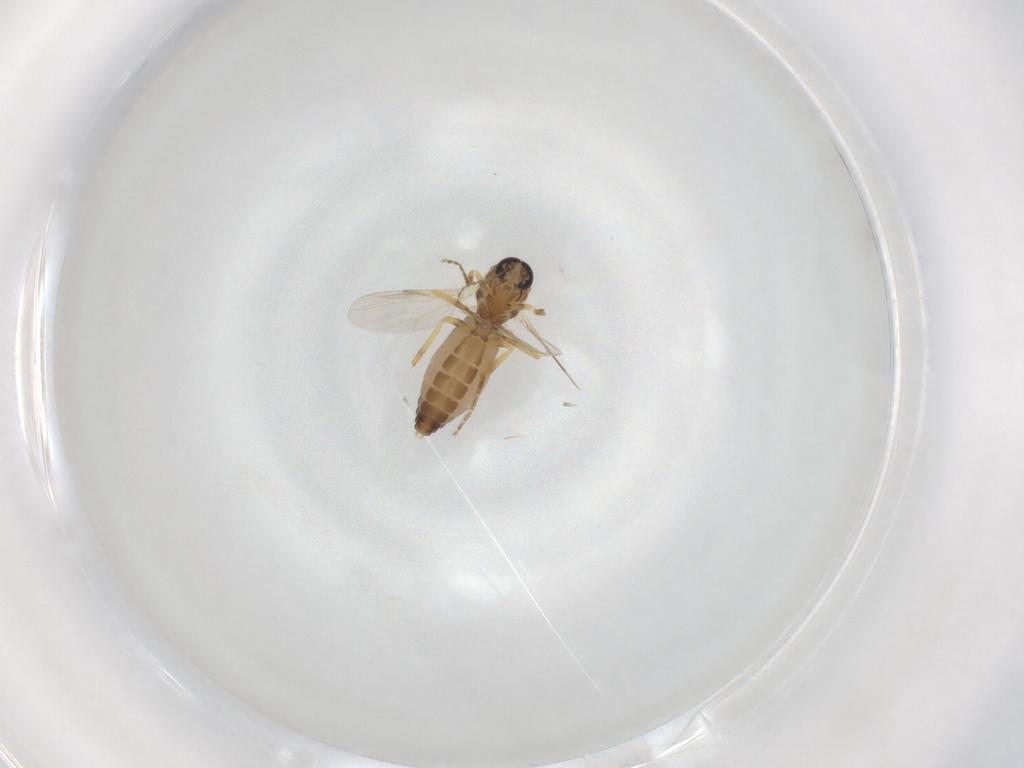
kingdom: Animalia
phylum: Arthropoda
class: Insecta
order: Diptera
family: Ceratopogonidae
